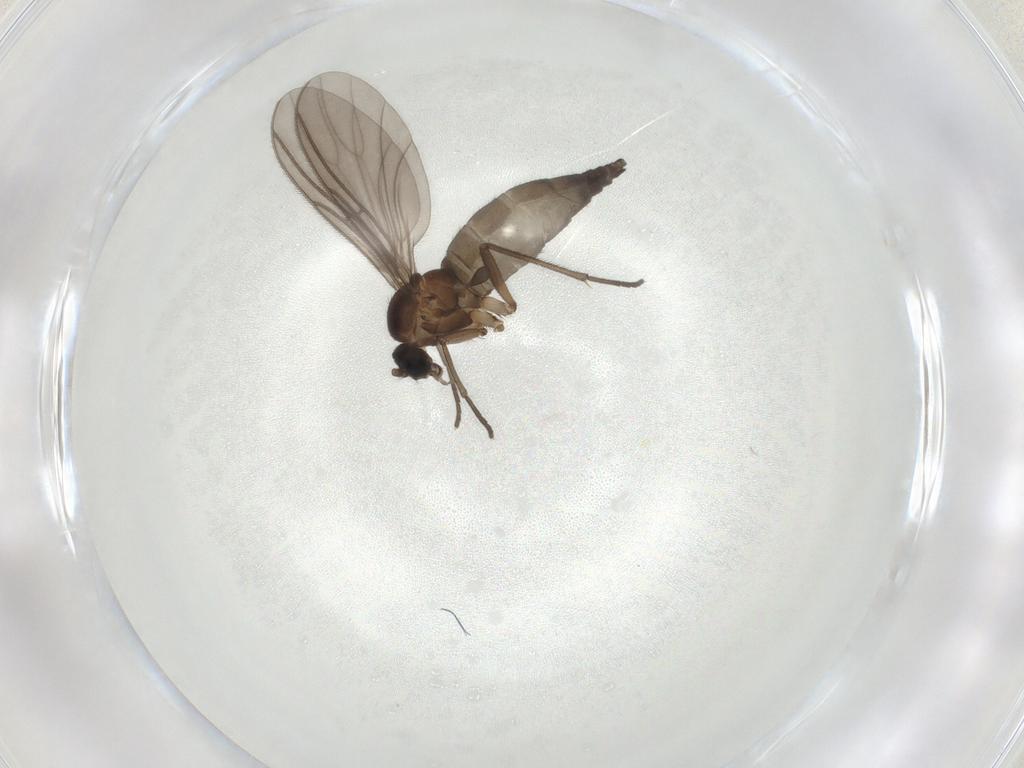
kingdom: Animalia
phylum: Arthropoda
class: Insecta
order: Diptera
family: Sciaridae
